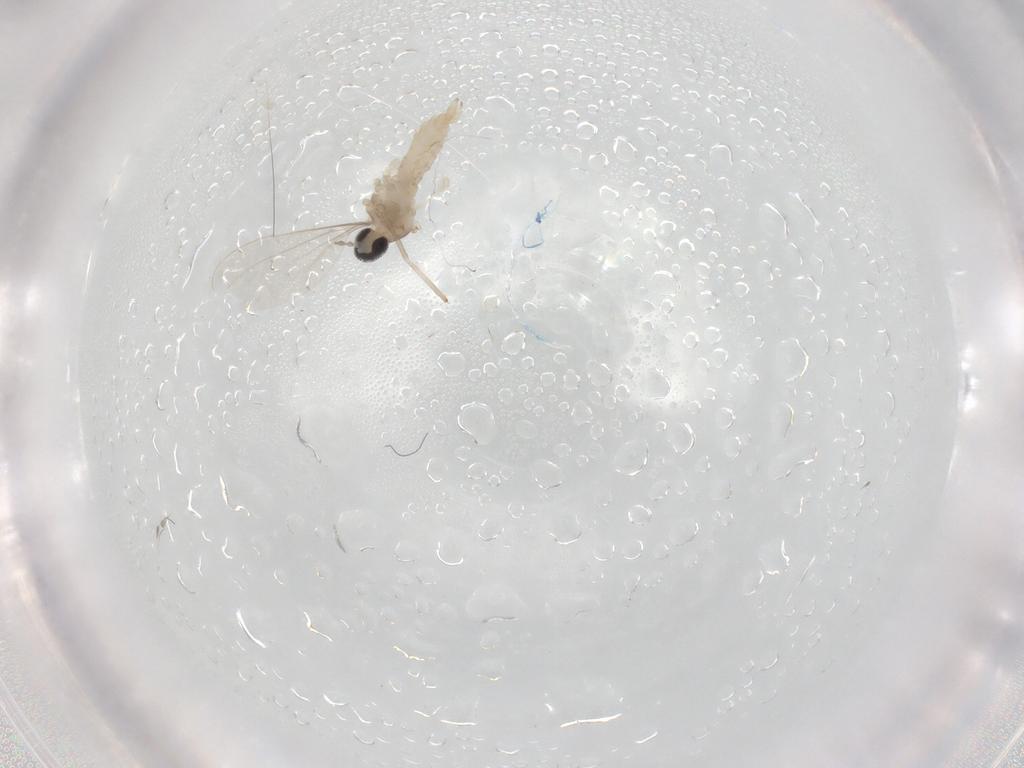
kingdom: Animalia
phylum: Arthropoda
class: Insecta
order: Diptera
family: Cecidomyiidae
